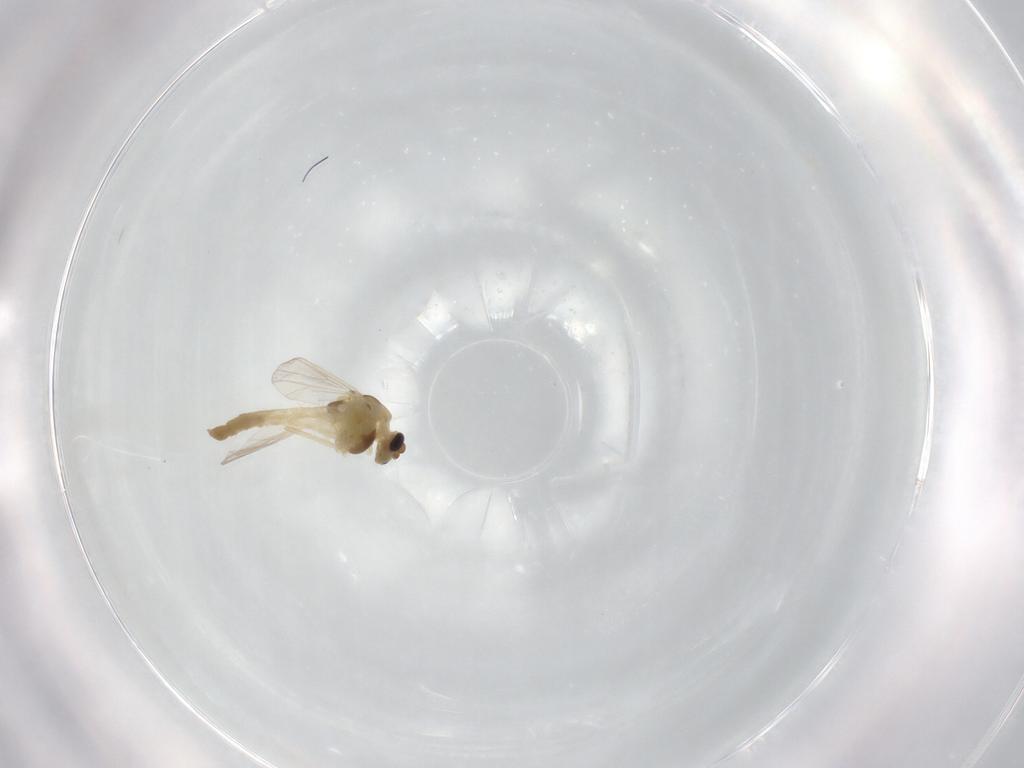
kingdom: Animalia
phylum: Arthropoda
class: Insecta
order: Diptera
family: Chironomidae
